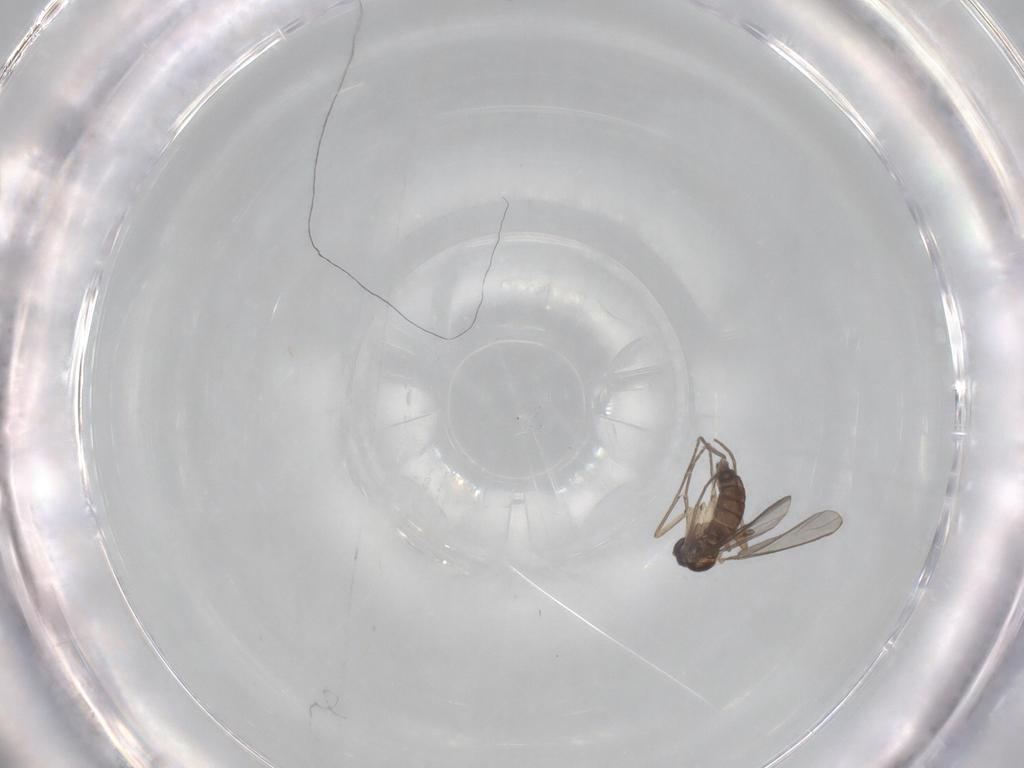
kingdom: Animalia
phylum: Arthropoda
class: Insecta
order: Diptera
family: Sciaridae
